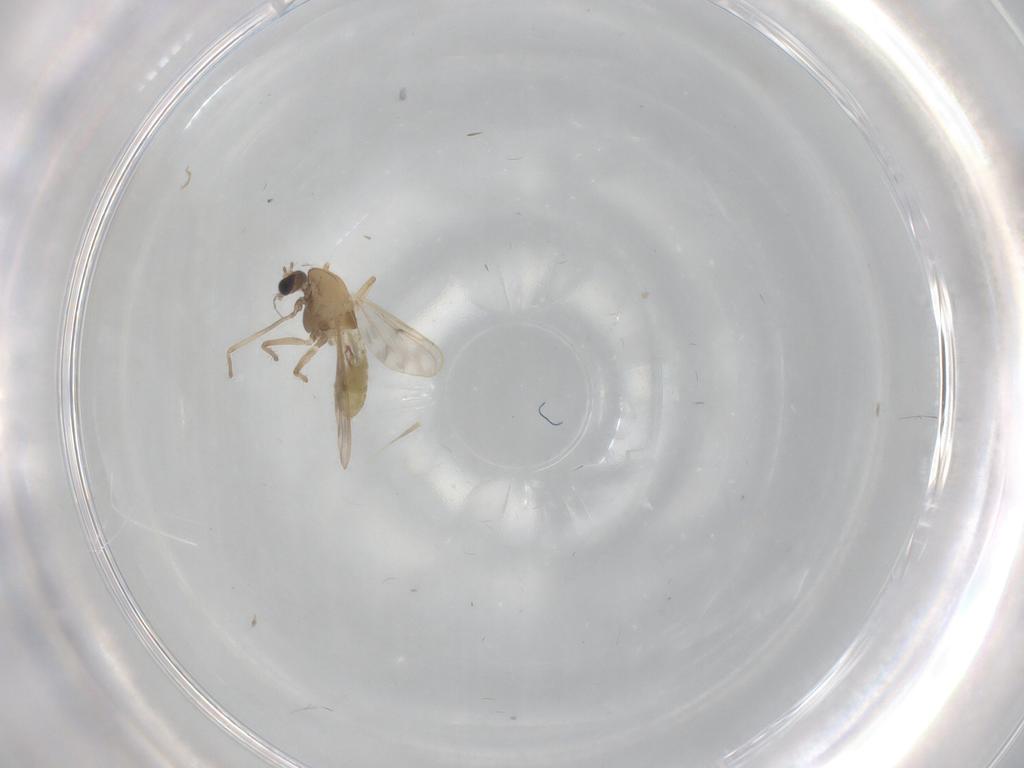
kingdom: Animalia
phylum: Arthropoda
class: Insecta
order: Diptera
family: Chironomidae
